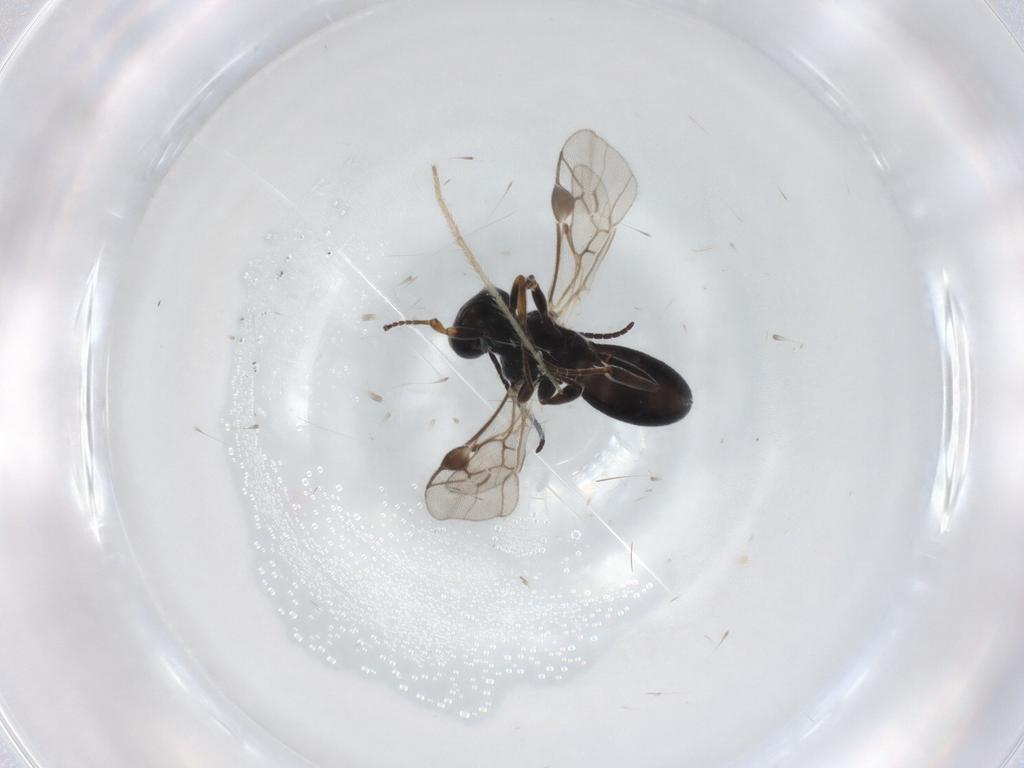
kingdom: Animalia
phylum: Arthropoda
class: Insecta
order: Hymenoptera
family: Braconidae
